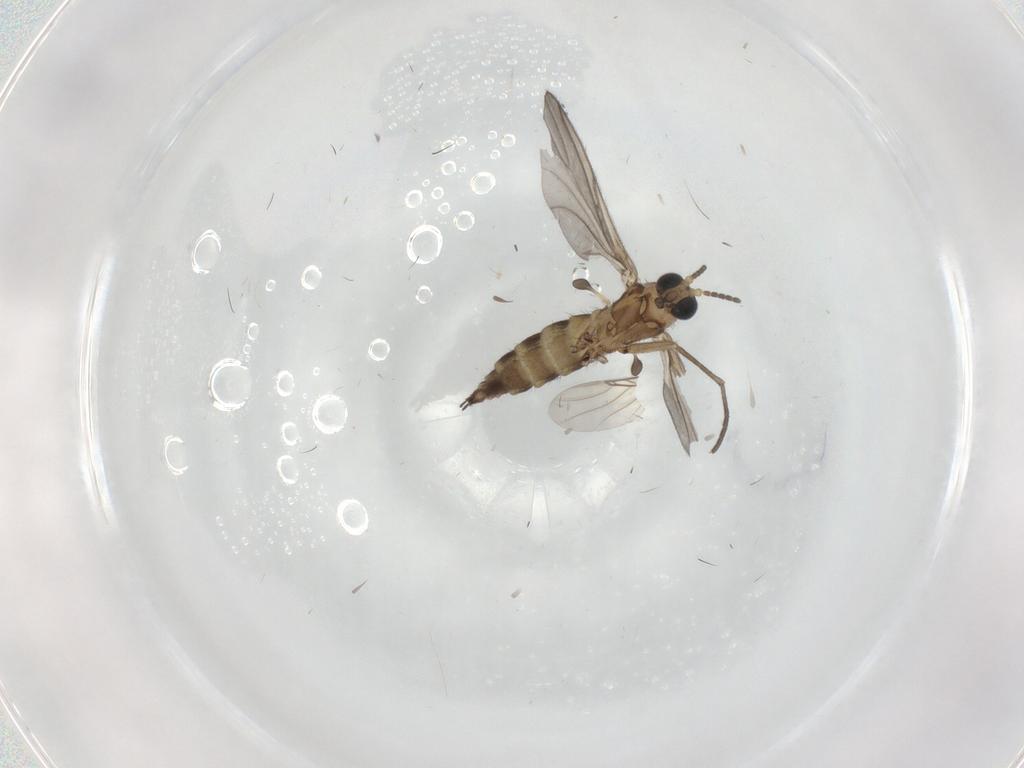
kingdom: Animalia
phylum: Arthropoda
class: Insecta
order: Diptera
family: Sciaridae
